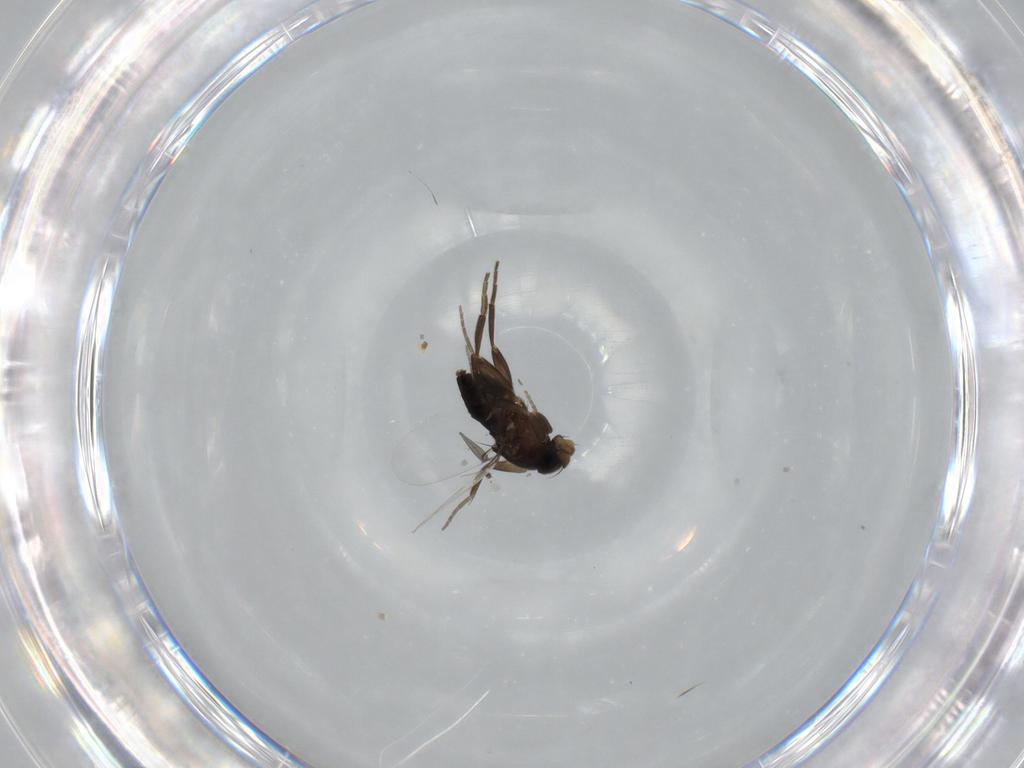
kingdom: Animalia
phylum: Arthropoda
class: Insecta
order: Diptera
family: Phoridae
